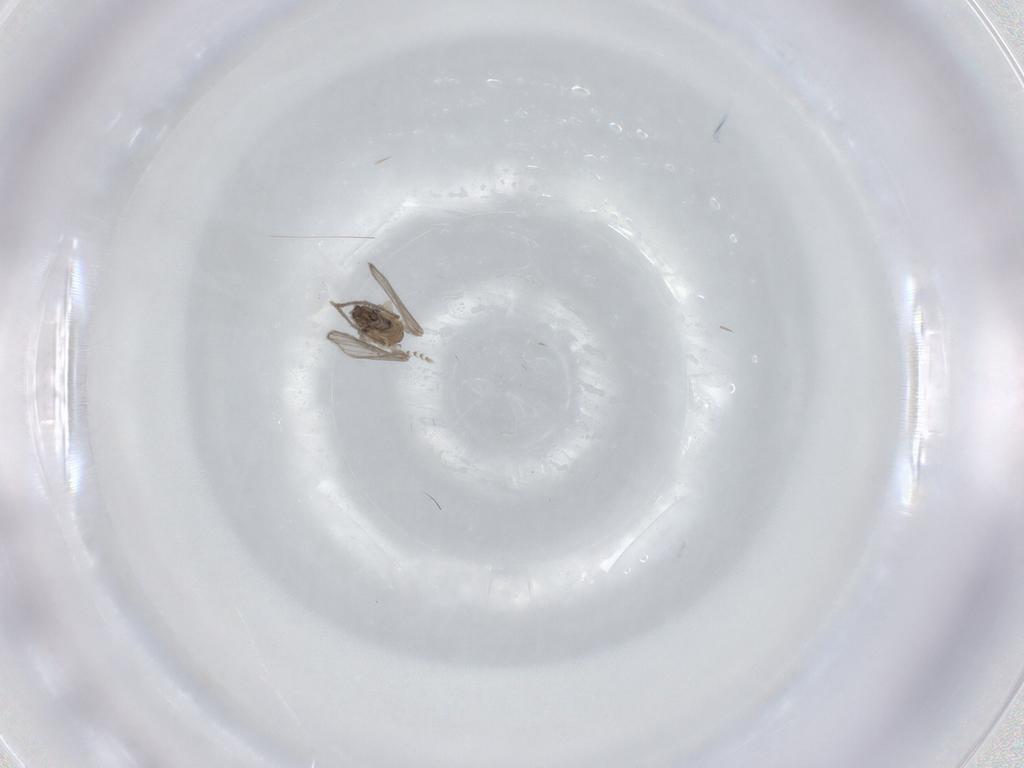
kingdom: Animalia
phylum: Arthropoda
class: Insecta
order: Diptera
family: Psychodidae
